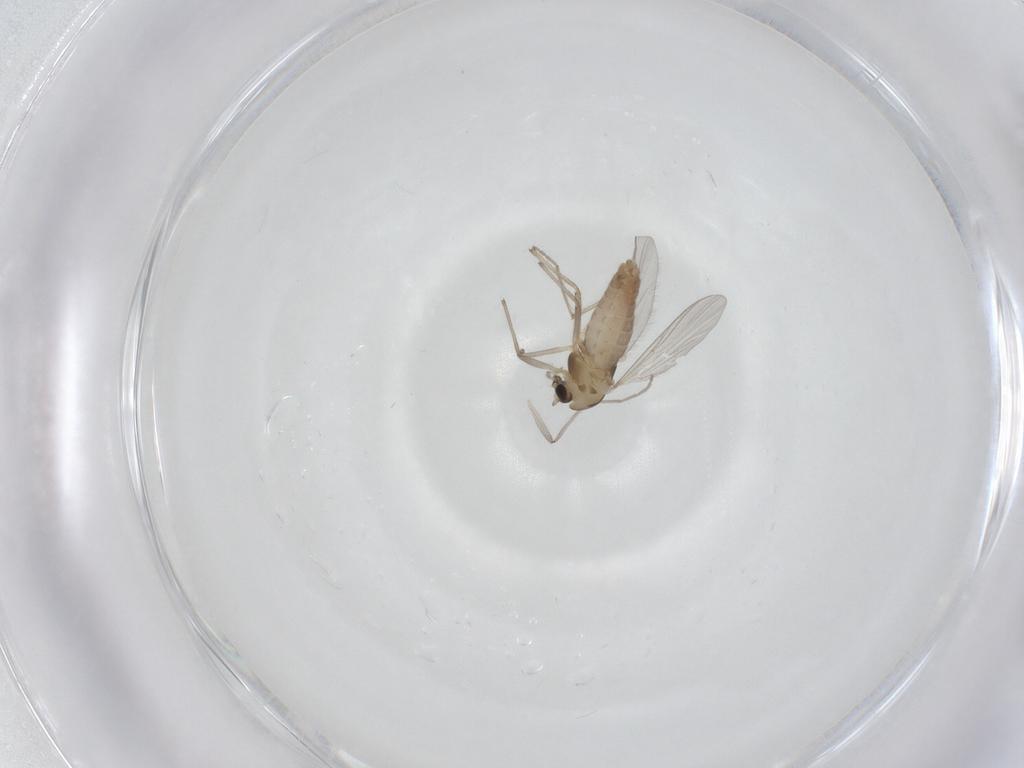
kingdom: Animalia
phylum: Arthropoda
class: Insecta
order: Diptera
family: Chironomidae
